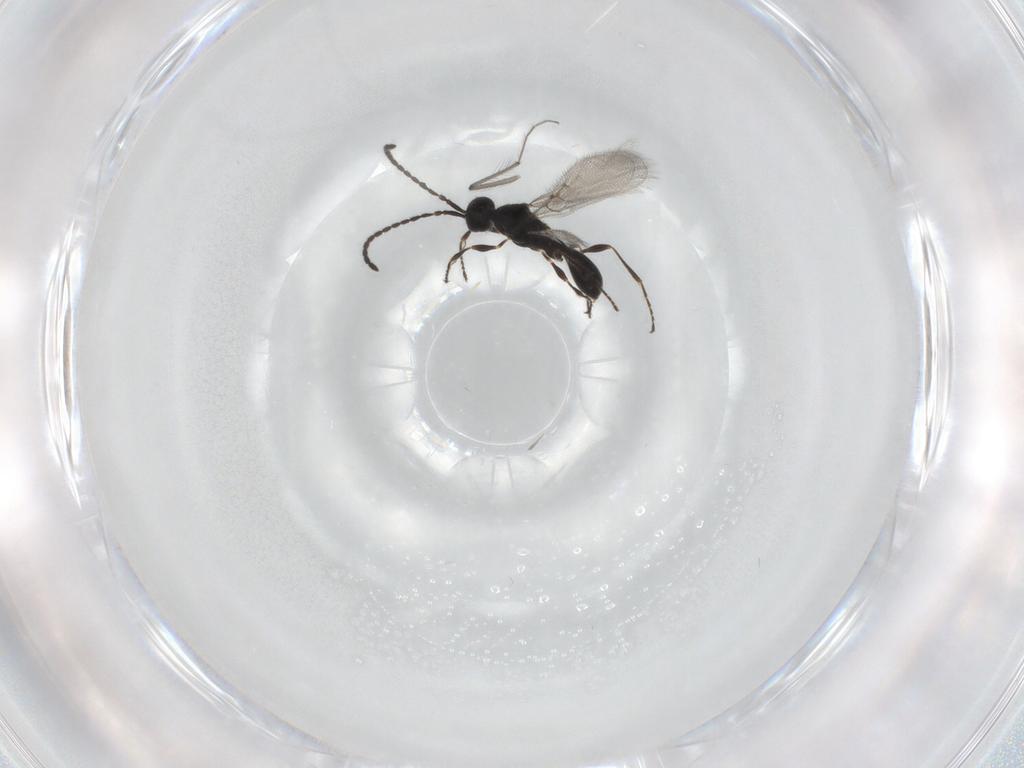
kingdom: Animalia
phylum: Arthropoda
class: Insecta
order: Hymenoptera
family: Diapriidae
